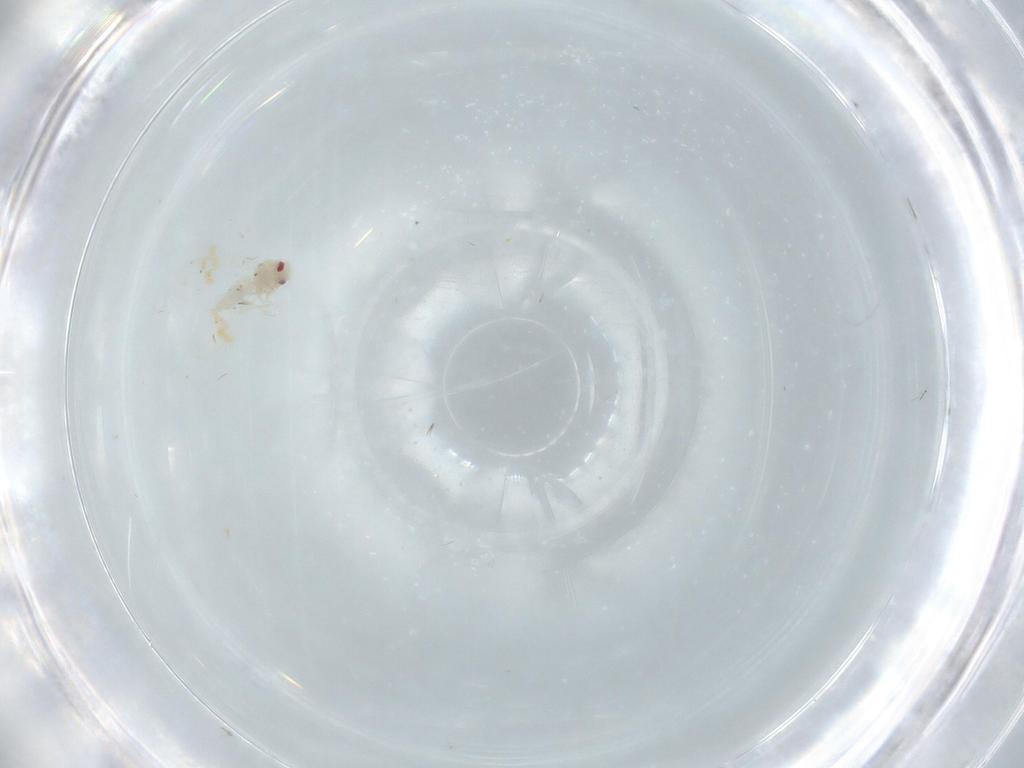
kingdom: Animalia
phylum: Arthropoda
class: Insecta
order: Hemiptera
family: Aleyrodidae
